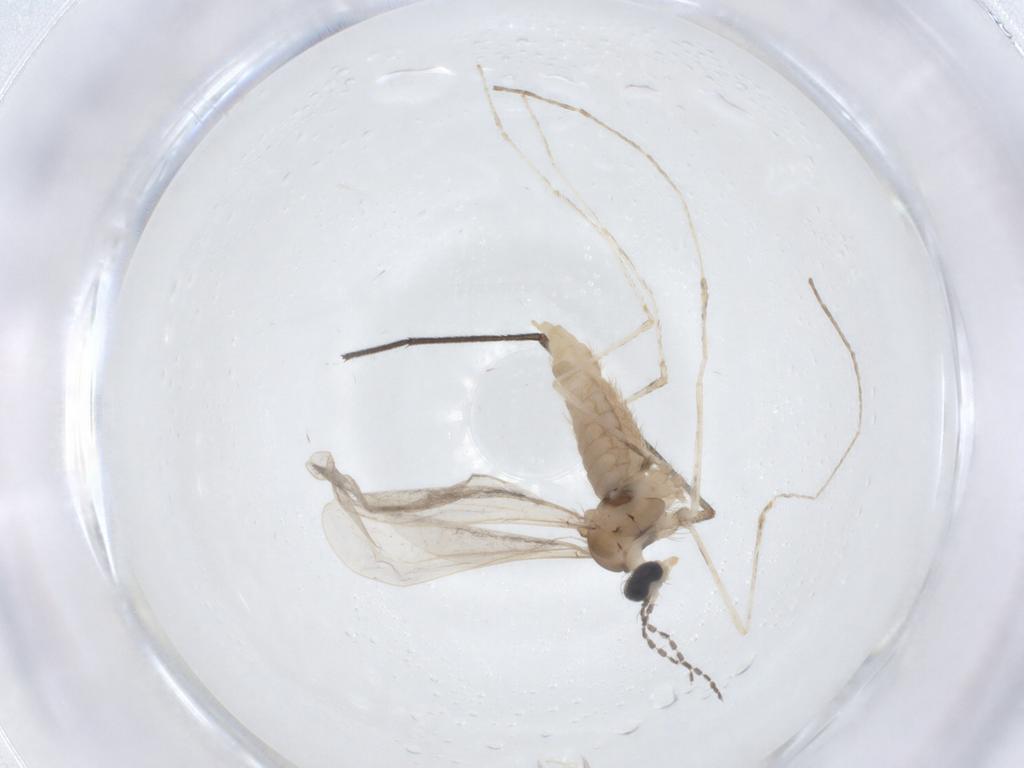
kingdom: Animalia
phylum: Arthropoda
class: Insecta
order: Diptera
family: Ditomyiidae
